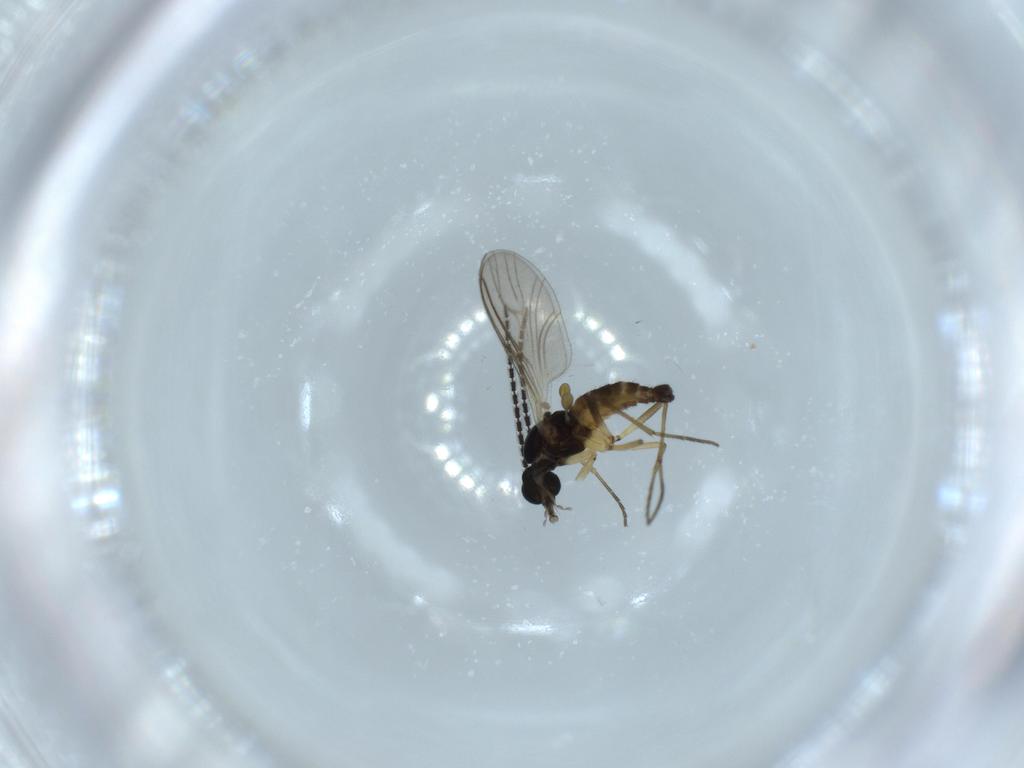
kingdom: Animalia
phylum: Arthropoda
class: Insecta
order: Diptera
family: Sciaridae
